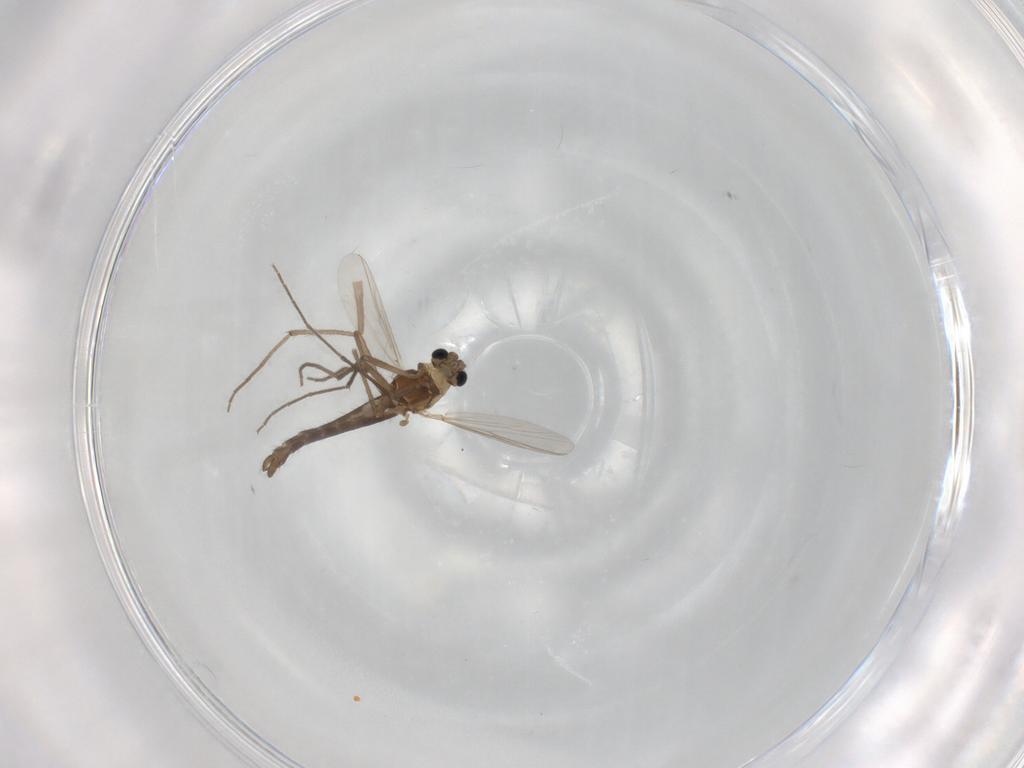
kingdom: Animalia
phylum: Arthropoda
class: Insecta
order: Diptera
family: Chironomidae
